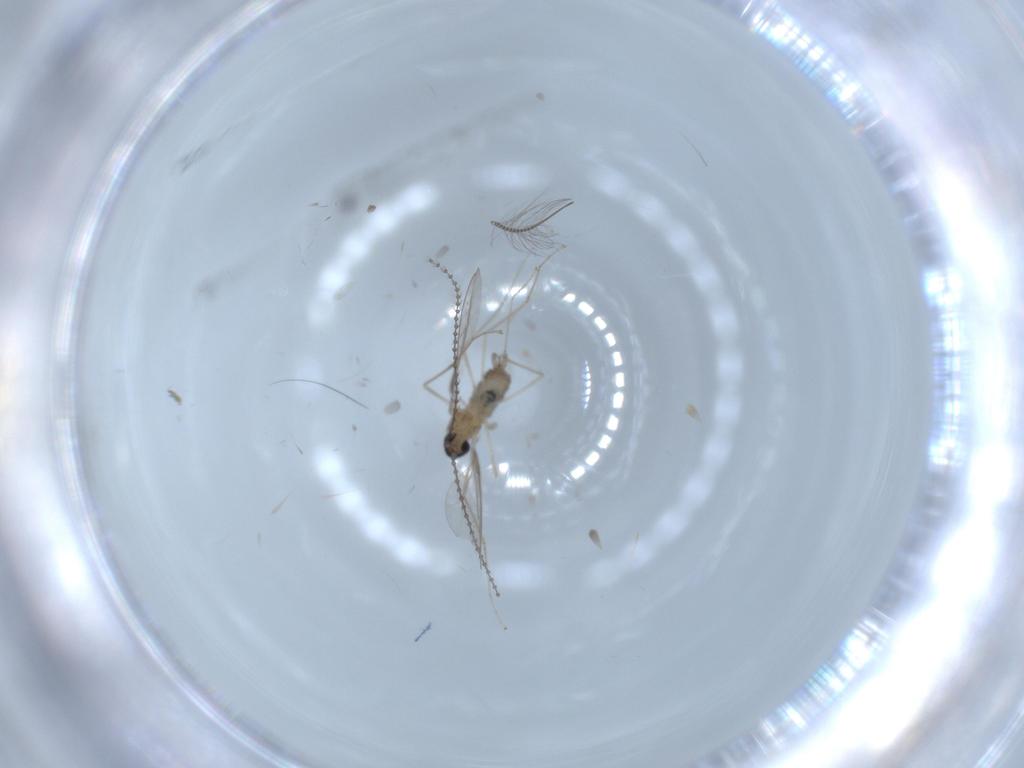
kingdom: Animalia
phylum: Arthropoda
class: Insecta
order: Diptera
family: Cecidomyiidae
